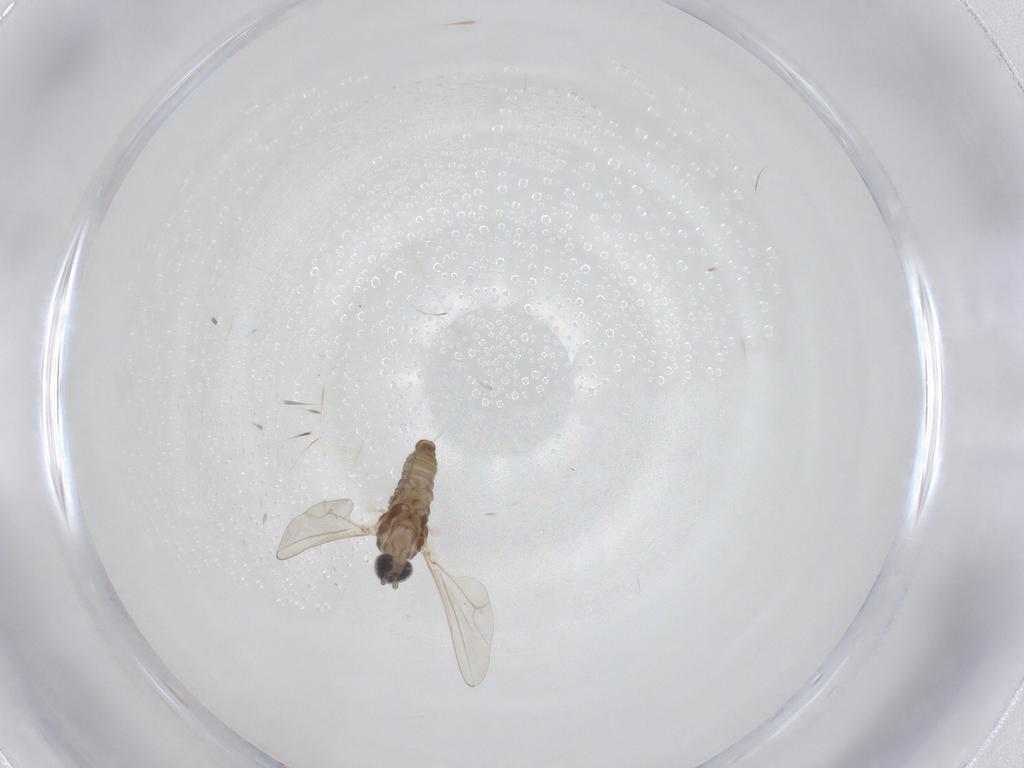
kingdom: Animalia
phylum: Arthropoda
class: Insecta
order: Diptera
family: Cecidomyiidae
